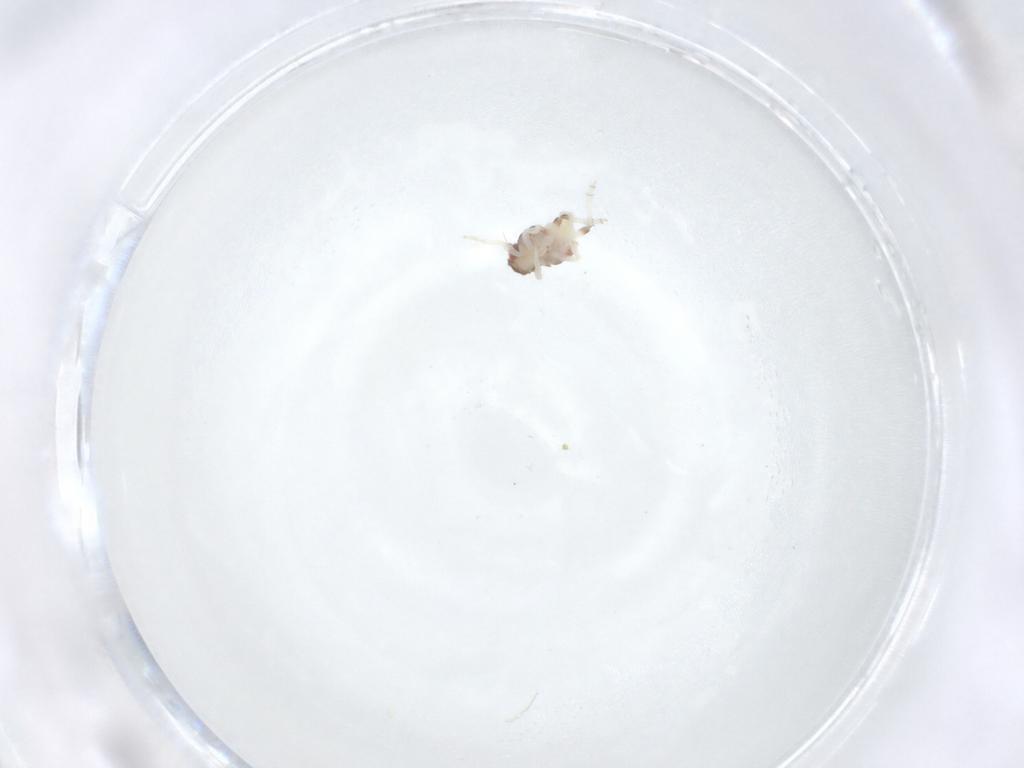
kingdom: Animalia
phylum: Arthropoda
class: Insecta
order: Hemiptera
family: Nogodinidae
